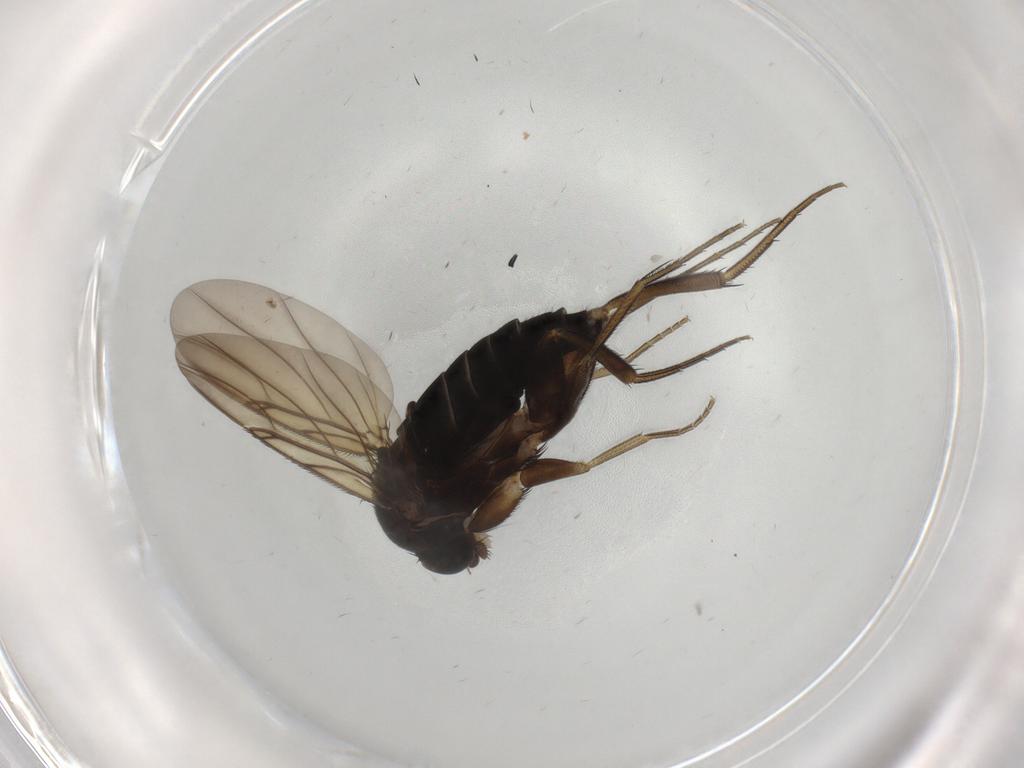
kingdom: Animalia
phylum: Arthropoda
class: Insecta
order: Diptera
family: Phoridae
